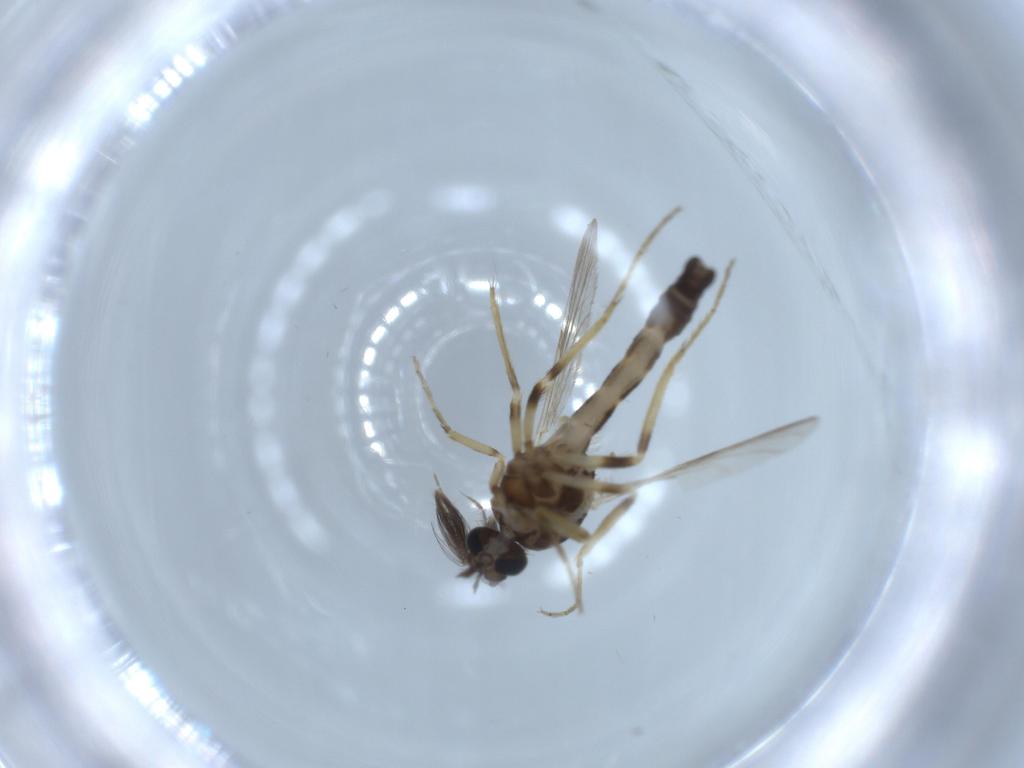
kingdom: Animalia
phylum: Arthropoda
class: Insecta
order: Diptera
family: Ceratopogonidae
